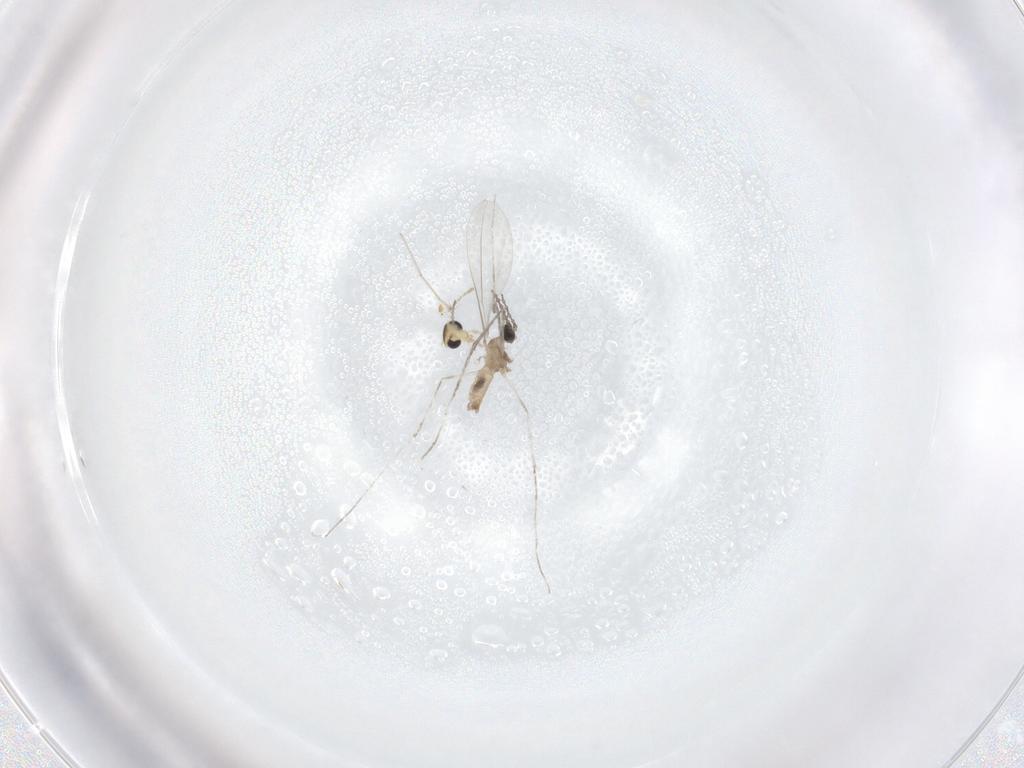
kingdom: Animalia
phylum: Arthropoda
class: Insecta
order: Diptera
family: Chironomidae
